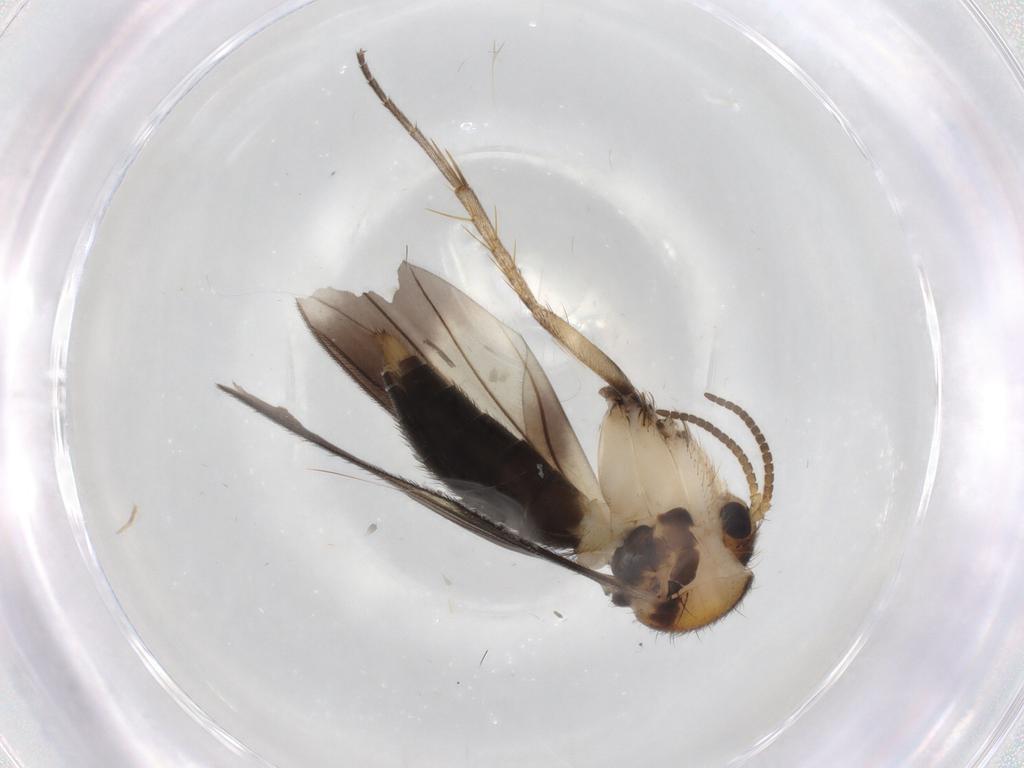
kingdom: Animalia
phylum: Arthropoda
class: Insecta
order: Diptera
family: Mycetophilidae
